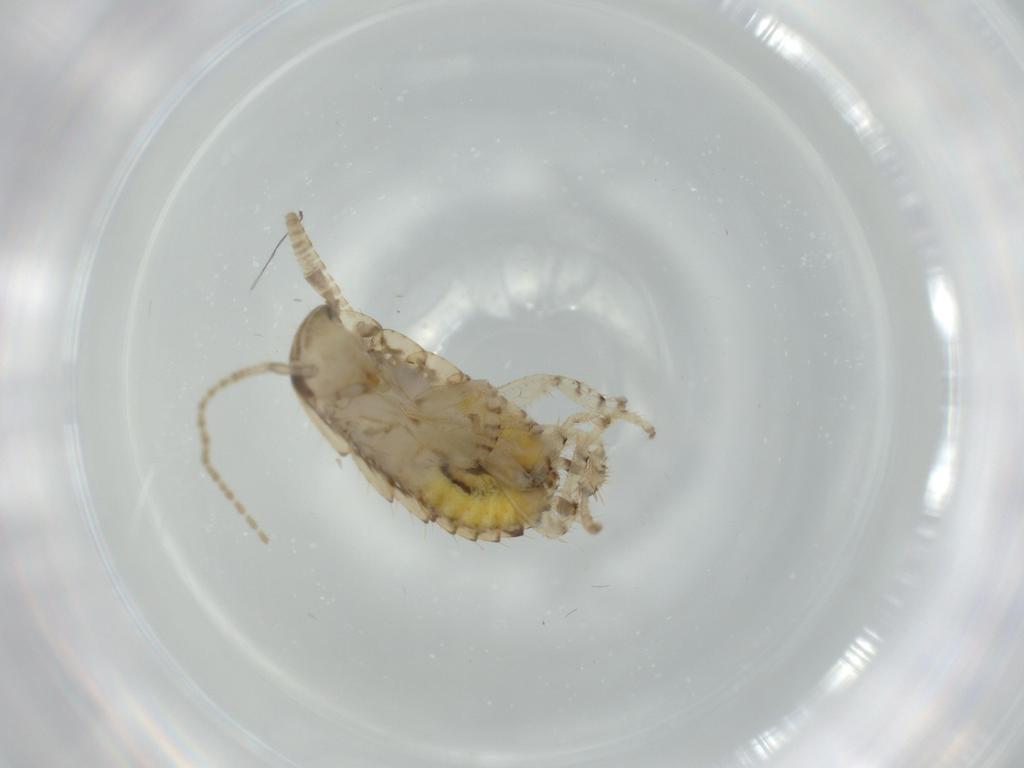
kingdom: Animalia
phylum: Arthropoda
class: Insecta
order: Blattodea
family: Ectobiidae
